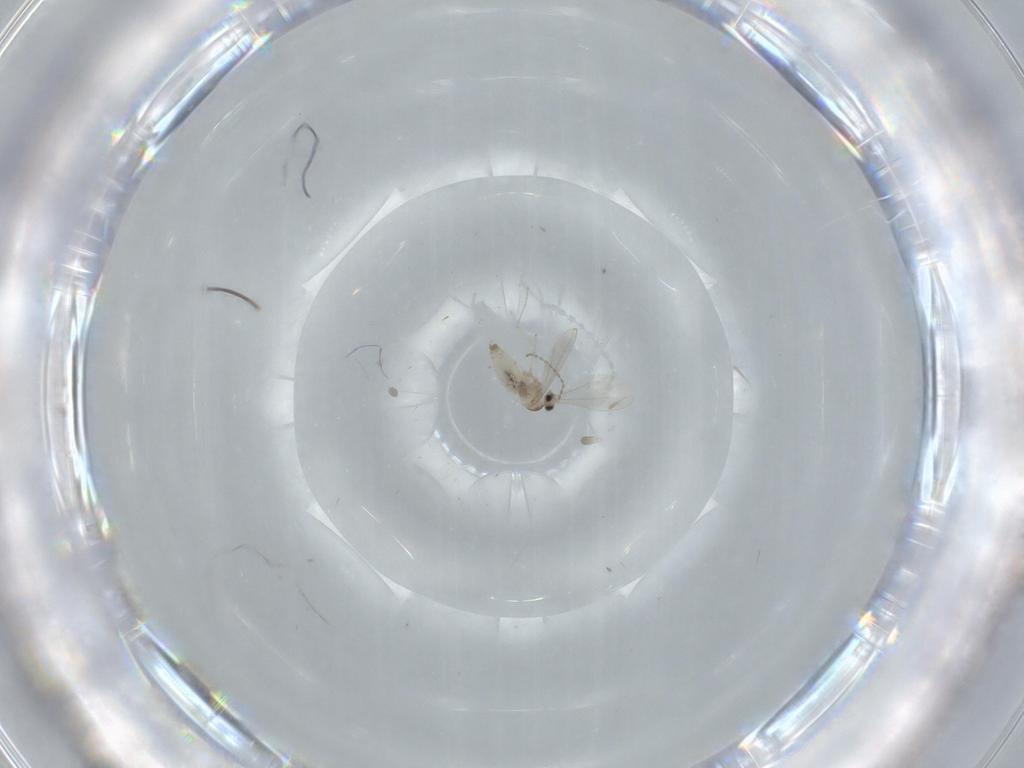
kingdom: Animalia
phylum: Arthropoda
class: Insecta
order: Diptera
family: Cecidomyiidae
